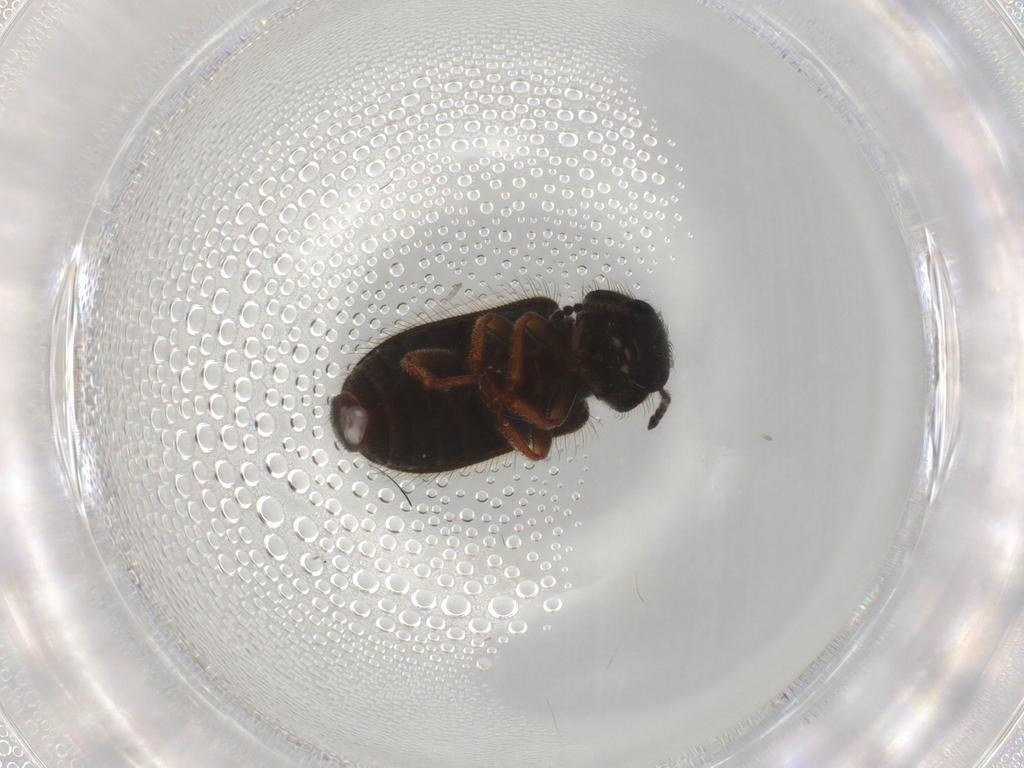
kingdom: Animalia
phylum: Arthropoda
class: Insecta
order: Coleoptera
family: Melyridae
